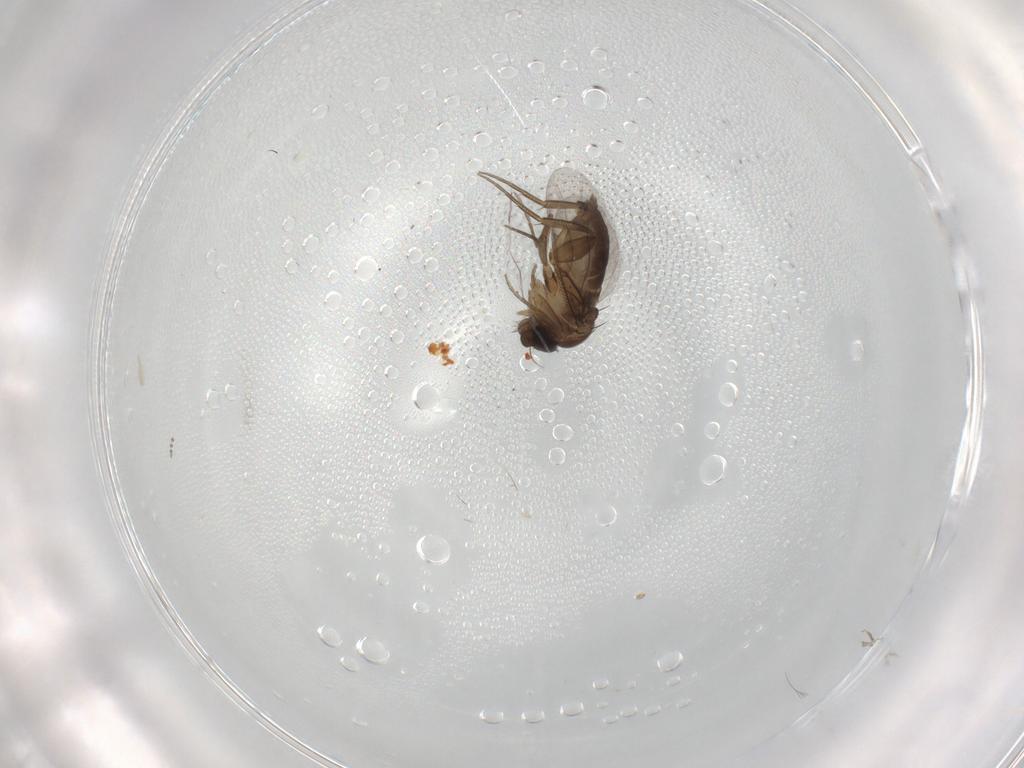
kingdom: Animalia
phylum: Arthropoda
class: Insecta
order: Diptera
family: Phoridae
